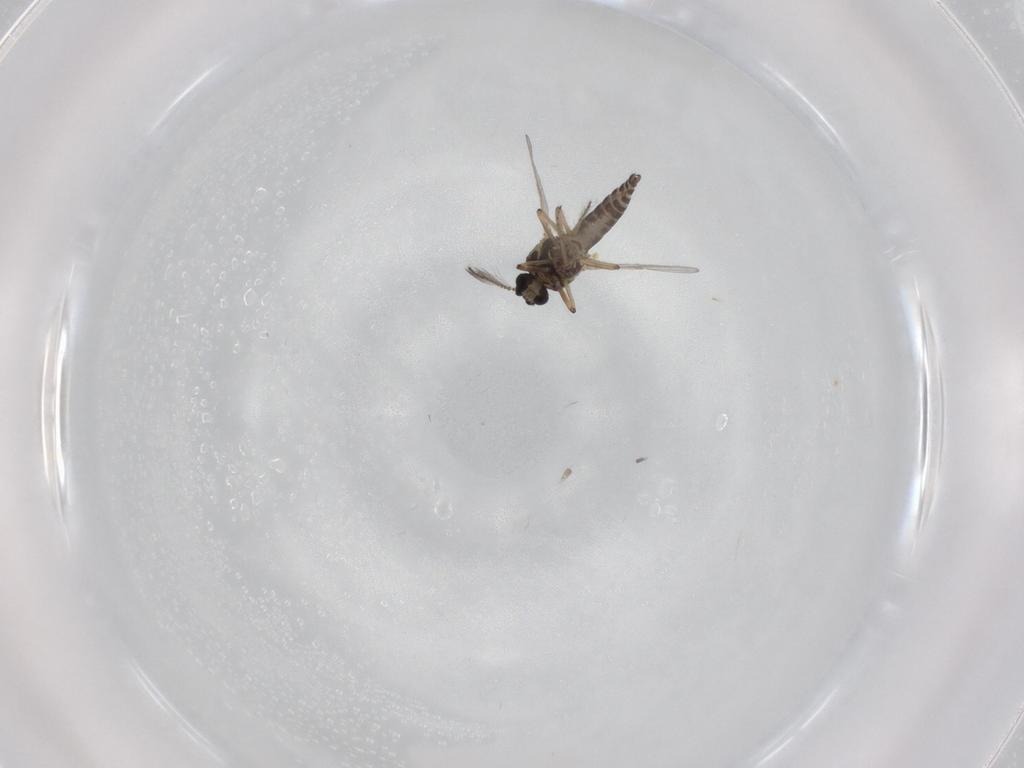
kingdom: Animalia
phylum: Arthropoda
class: Insecta
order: Diptera
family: Ceratopogonidae
